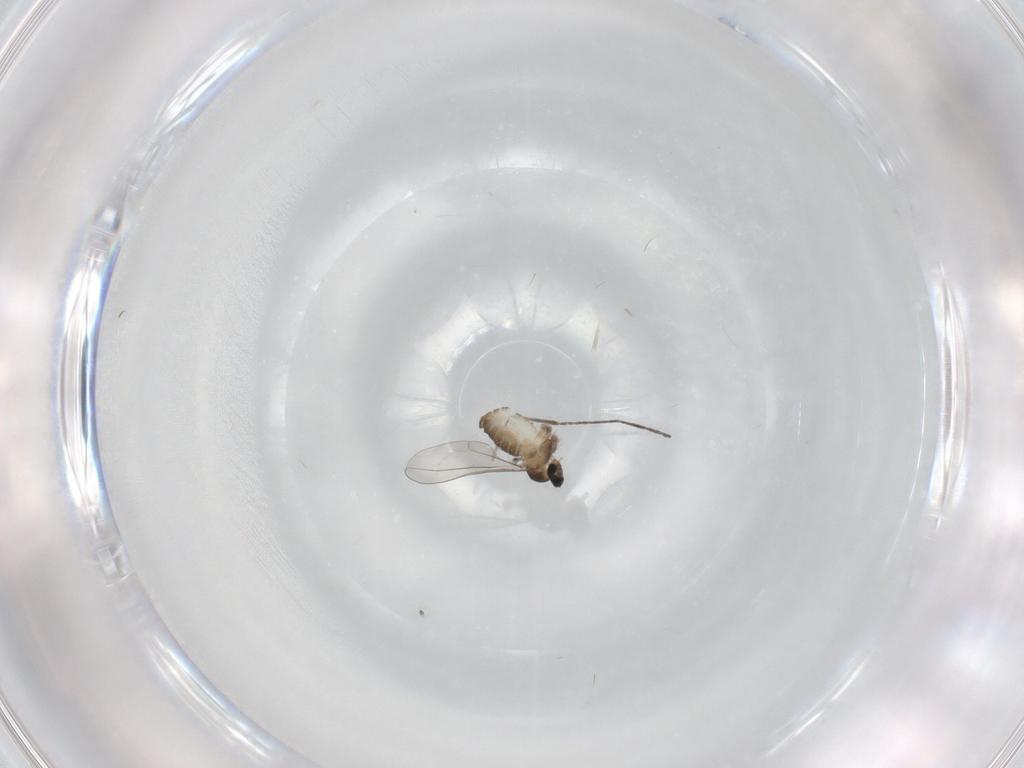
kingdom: Animalia
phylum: Arthropoda
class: Insecta
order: Diptera
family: Cecidomyiidae
